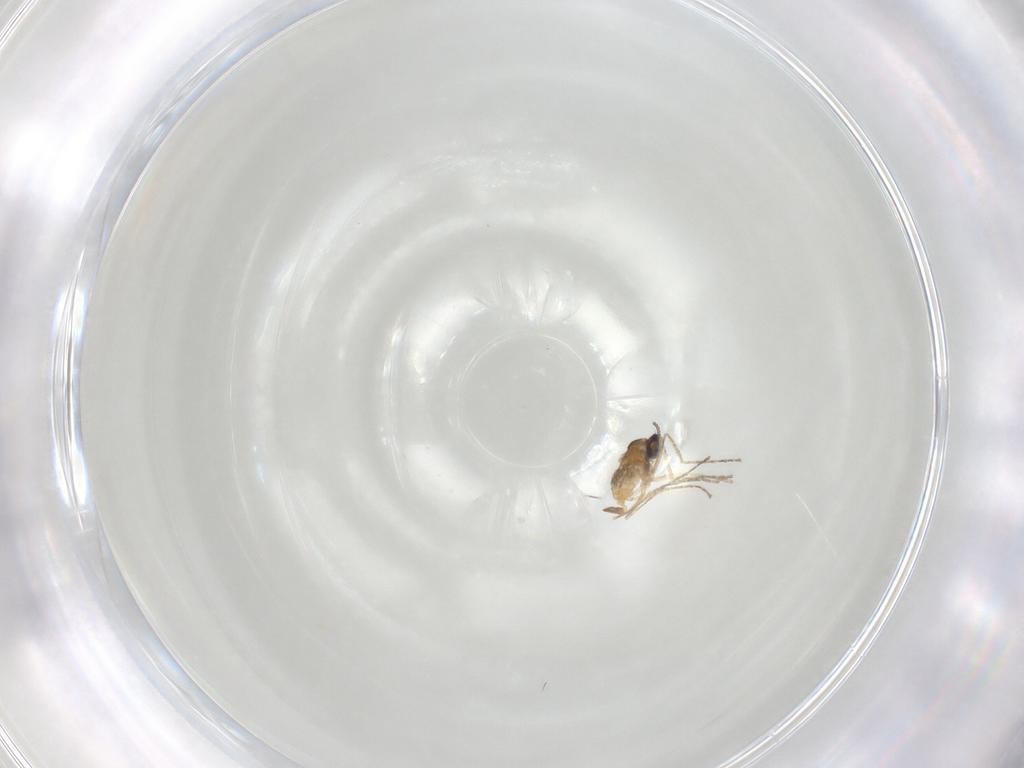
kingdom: Animalia
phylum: Arthropoda
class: Insecta
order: Diptera
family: Cecidomyiidae
